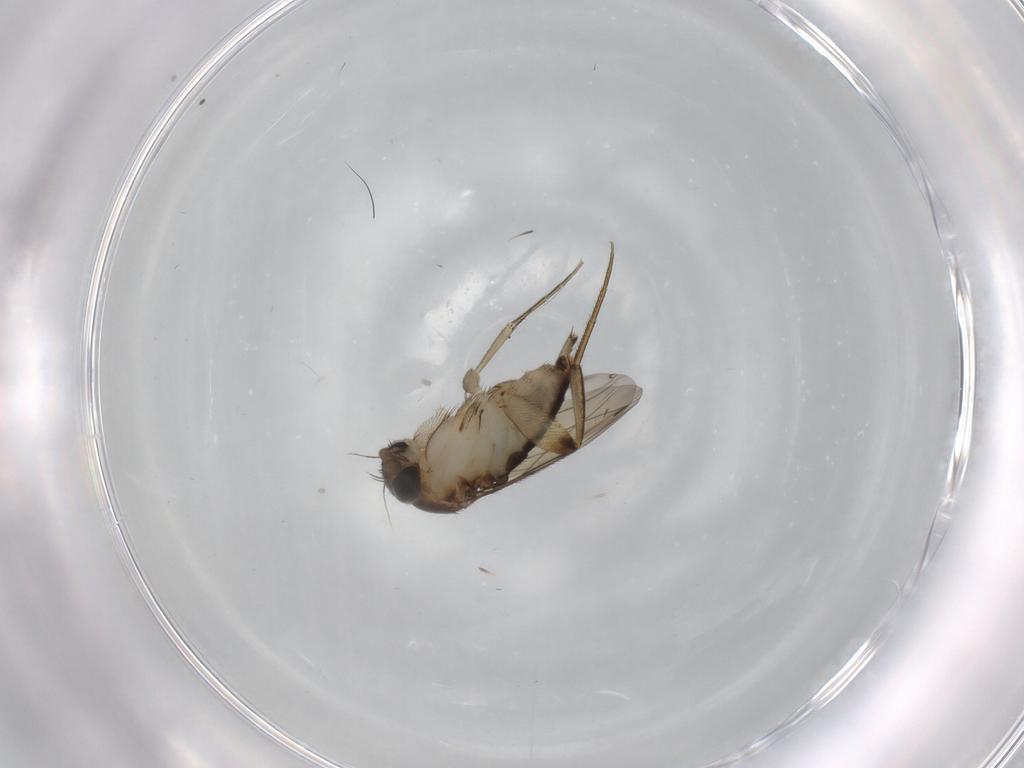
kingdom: Animalia
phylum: Arthropoda
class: Insecta
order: Diptera
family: Phoridae
